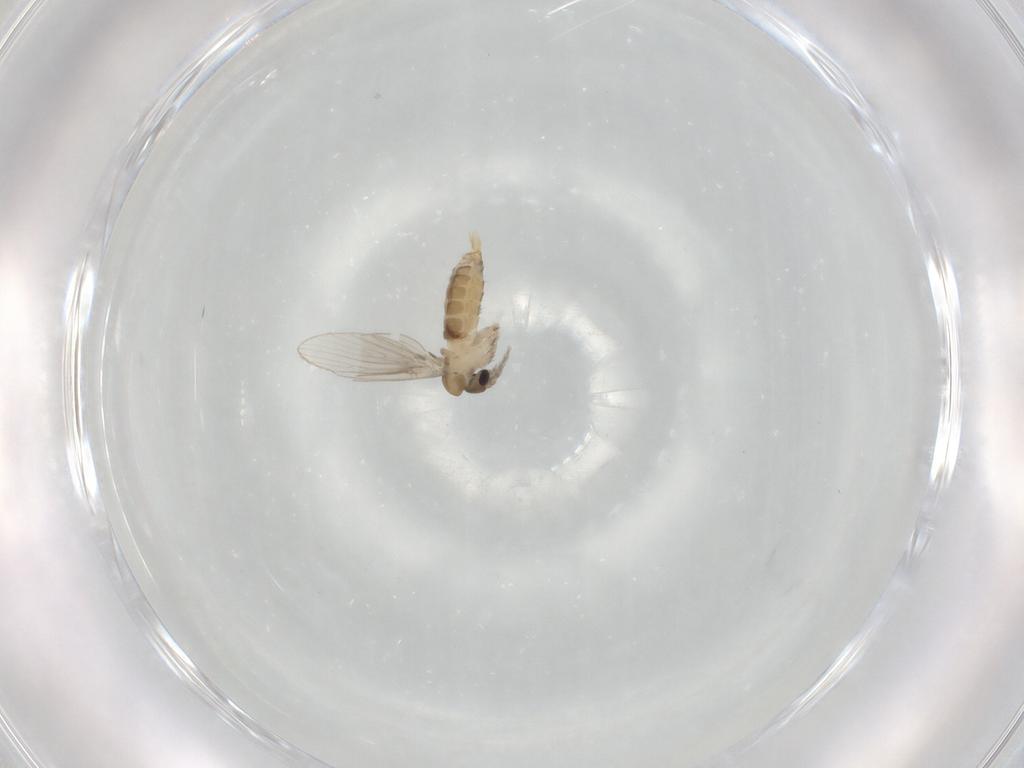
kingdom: Animalia
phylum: Arthropoda
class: Insecta
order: Diptera
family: Psychodidae
